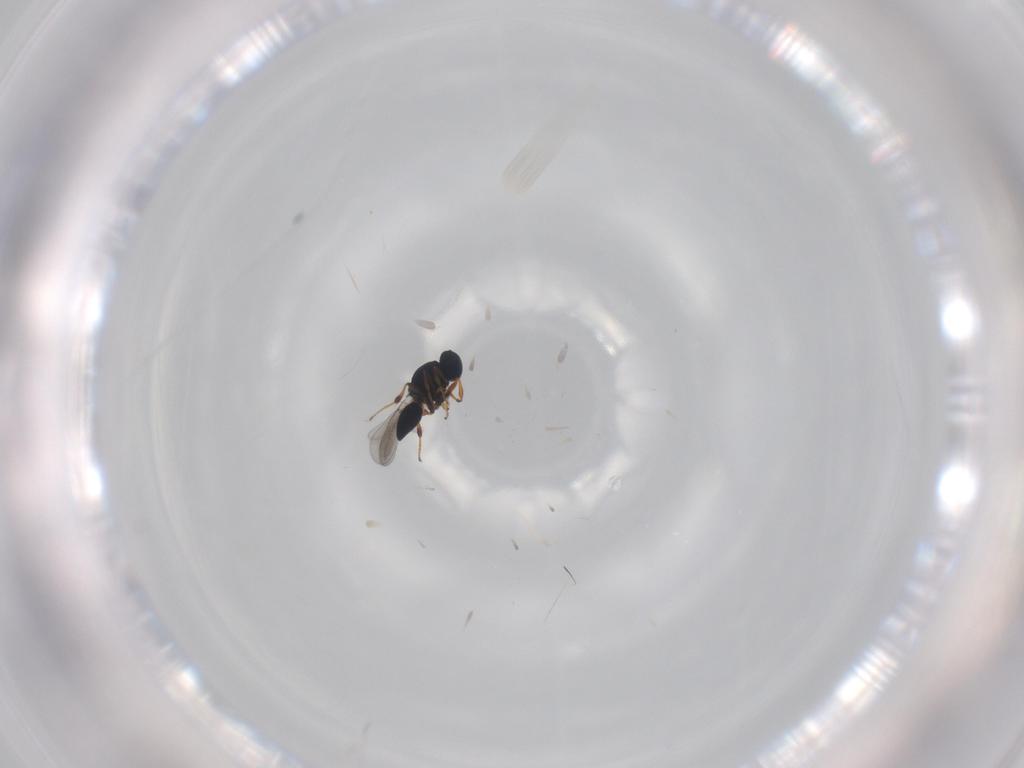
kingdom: Animalia
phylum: Arthropoda
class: Insecta
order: Hymenoptera
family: Platygastridae
